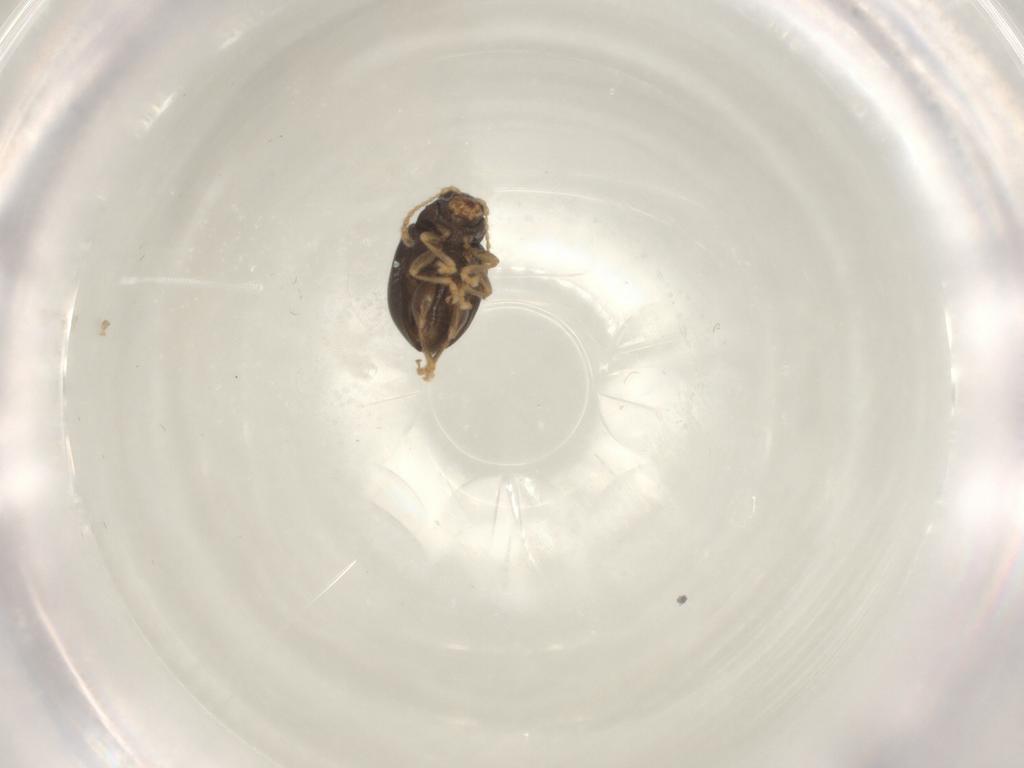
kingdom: Animalia
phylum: Arthropoda
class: Insecta
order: Coleoptera
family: Chrysomelidae
